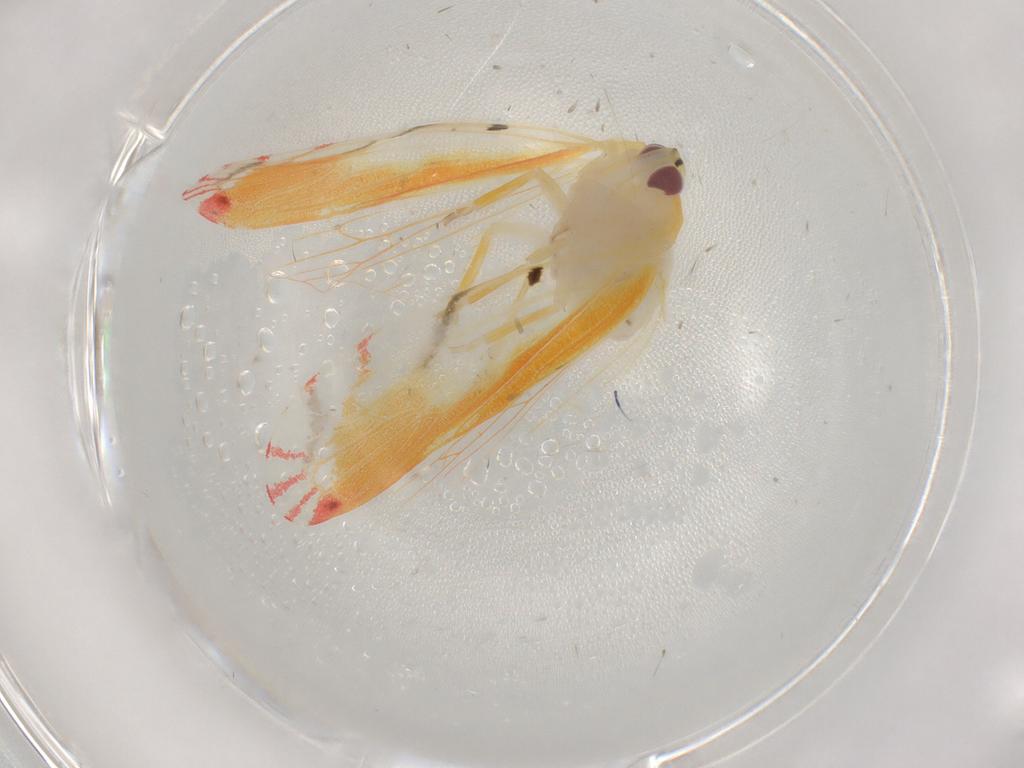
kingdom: Animalia
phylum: Arthropoda
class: Insecta
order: Hemiptera
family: Derbidae
